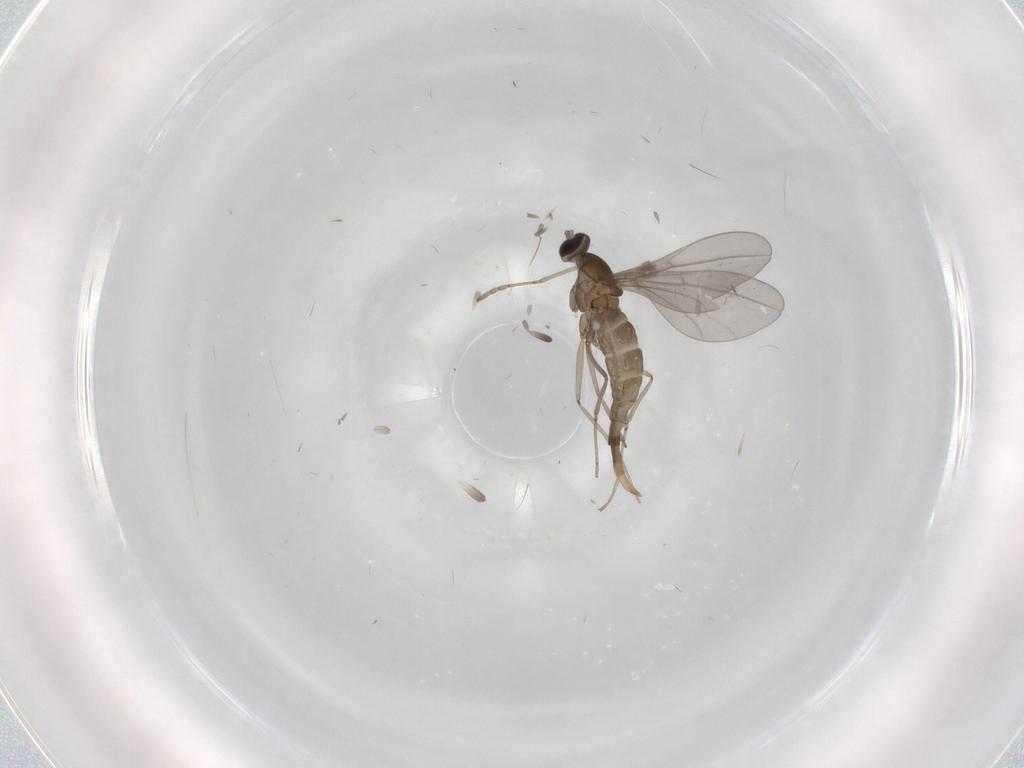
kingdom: Animalia
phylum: Arthropoda
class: Insecta
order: Diptera
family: Cecidomyiidae
